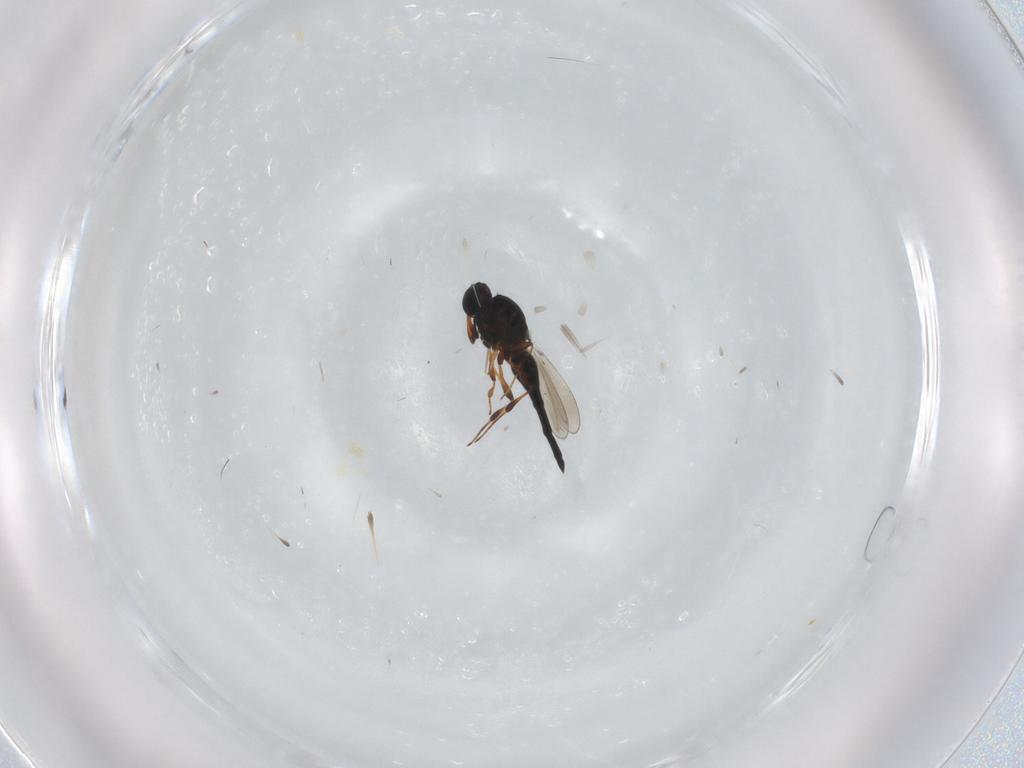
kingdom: Animalia
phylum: Arthropoda
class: Insecta
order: Hymenoptera
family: Platygastridae
